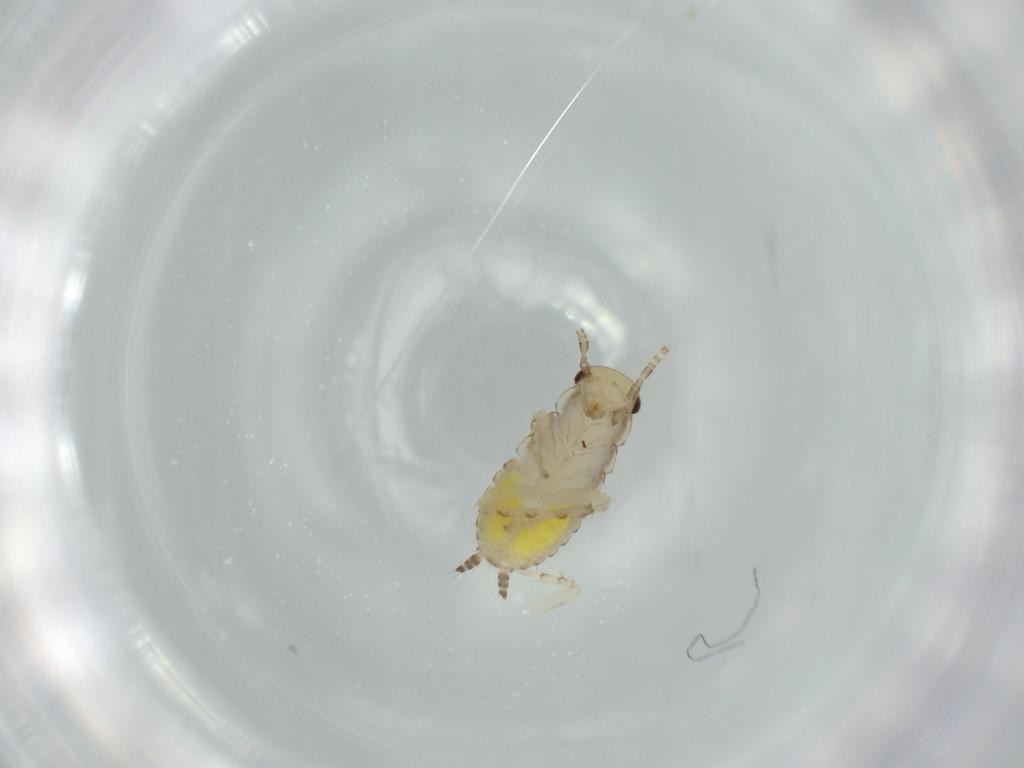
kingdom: Animalia
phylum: Arthropoda
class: Insecta
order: Blattodea
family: Ectobiidae
